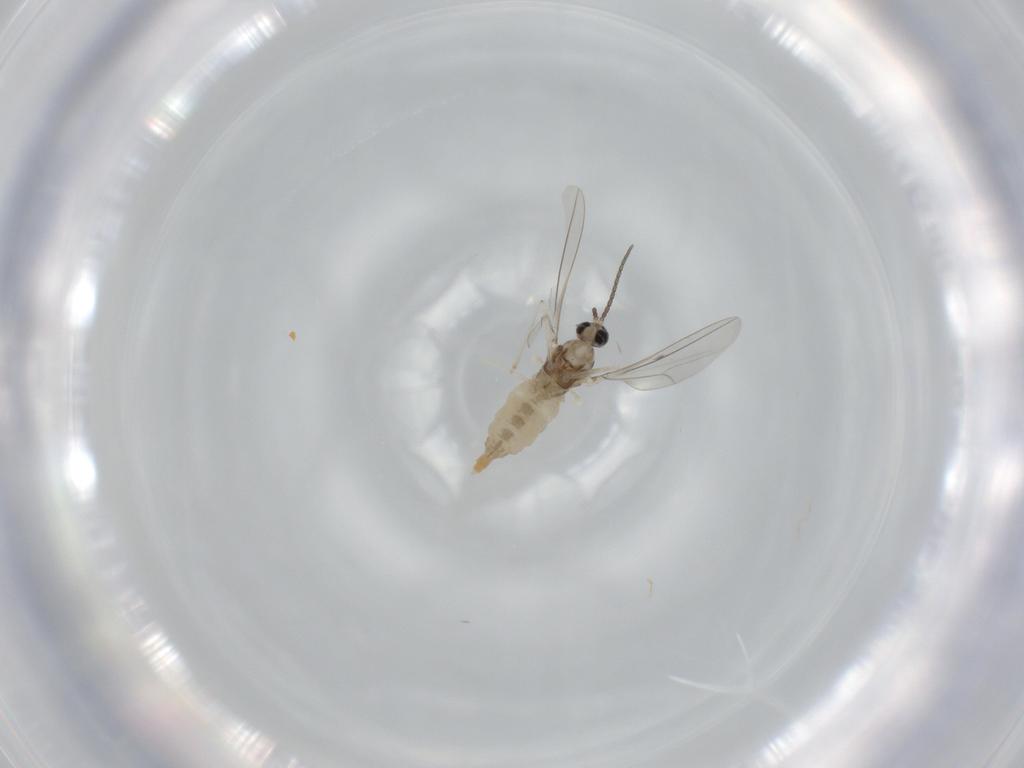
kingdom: Animalia
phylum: Arthropoda
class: Insecta
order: Diptera
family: Cecidomyiidae
